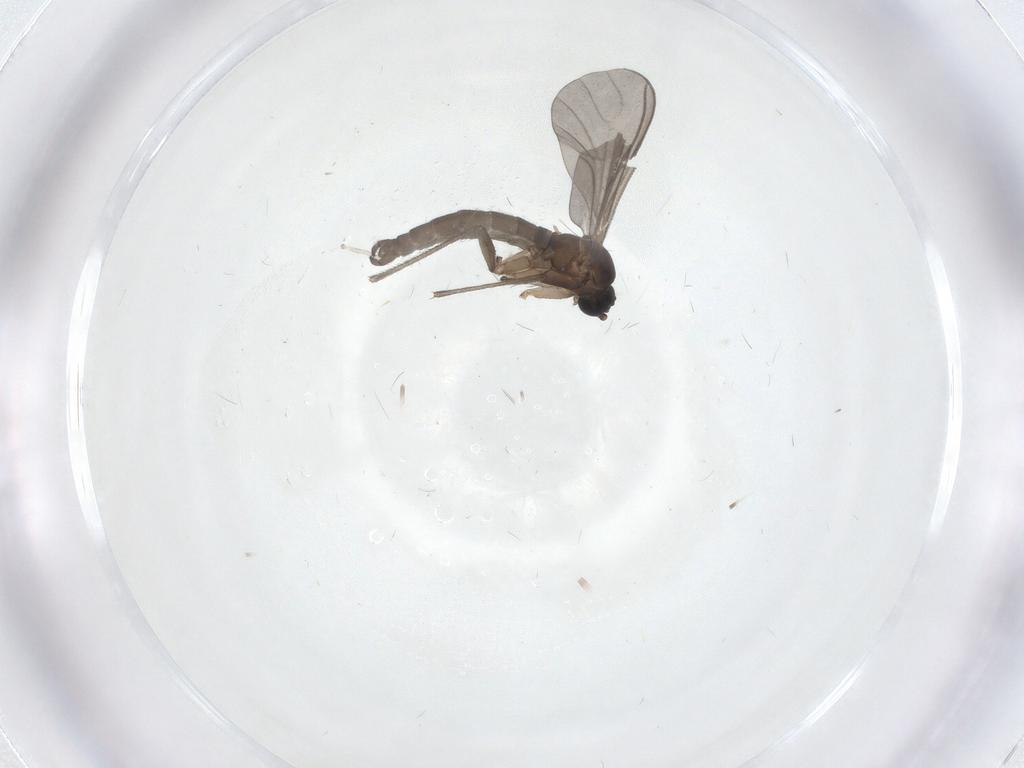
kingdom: Animalia
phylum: Arthropoda
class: Insecta
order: Diptera
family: Sciaridae
